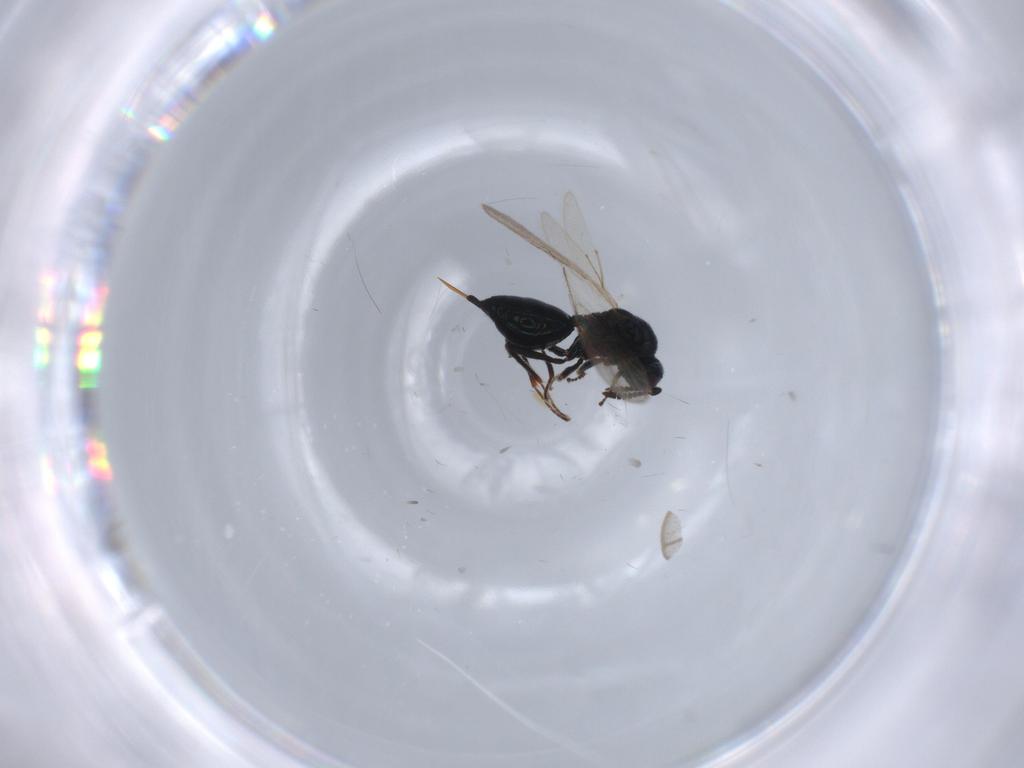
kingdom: Animalia
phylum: Arthropoda
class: Insecta
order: Hymenoptera
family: Chalcidoidea_incertae_sedis
